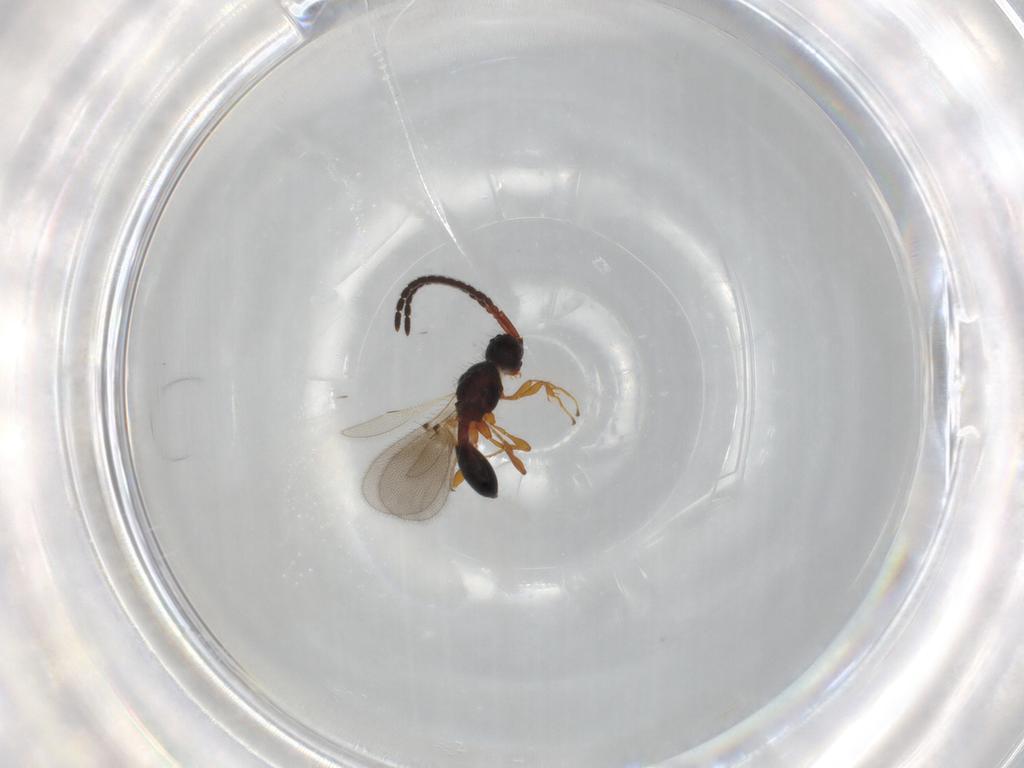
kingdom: Animalia
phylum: Arthropoda
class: Insecta
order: Hymenoptera
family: Diapriidae
